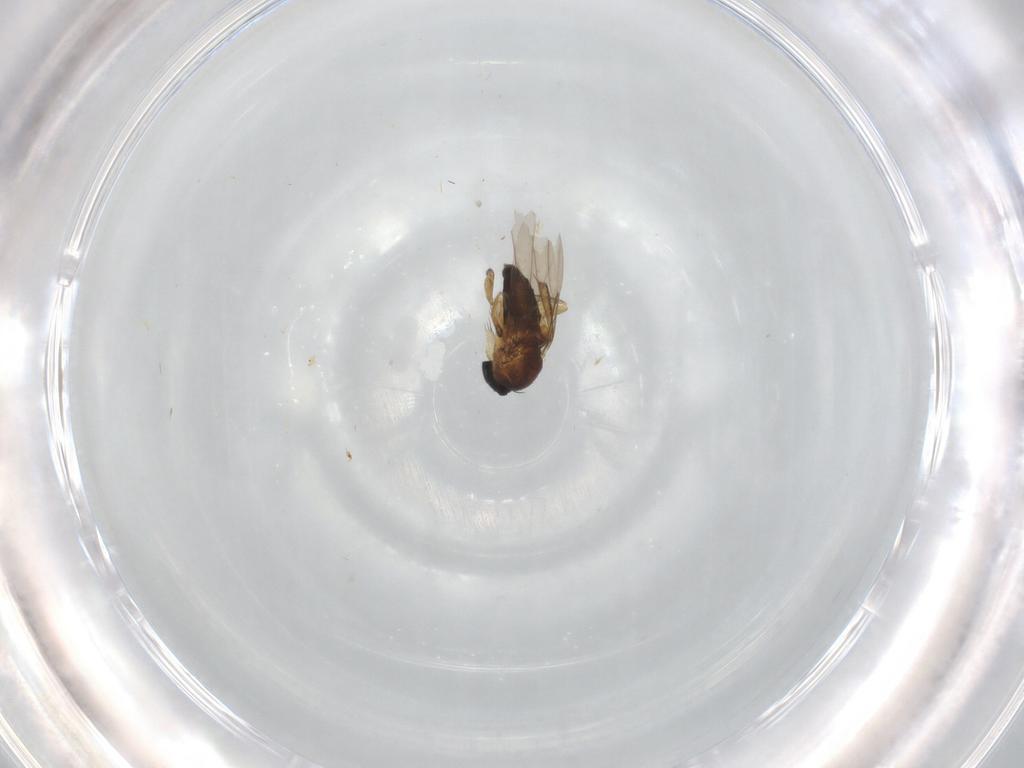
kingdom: Animalia
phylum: Arthropoda
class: Insecta
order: Diptera
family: Phoridae
